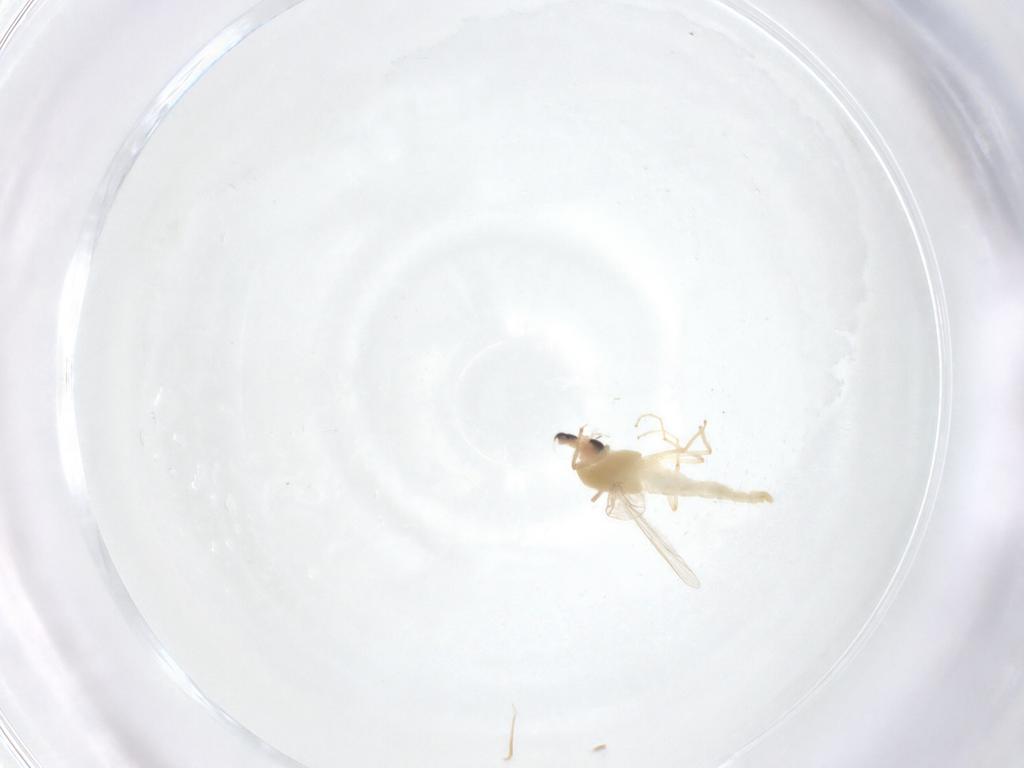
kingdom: Animalia
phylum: Arthropoda
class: Insecta
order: Diptera
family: Chironomidae
